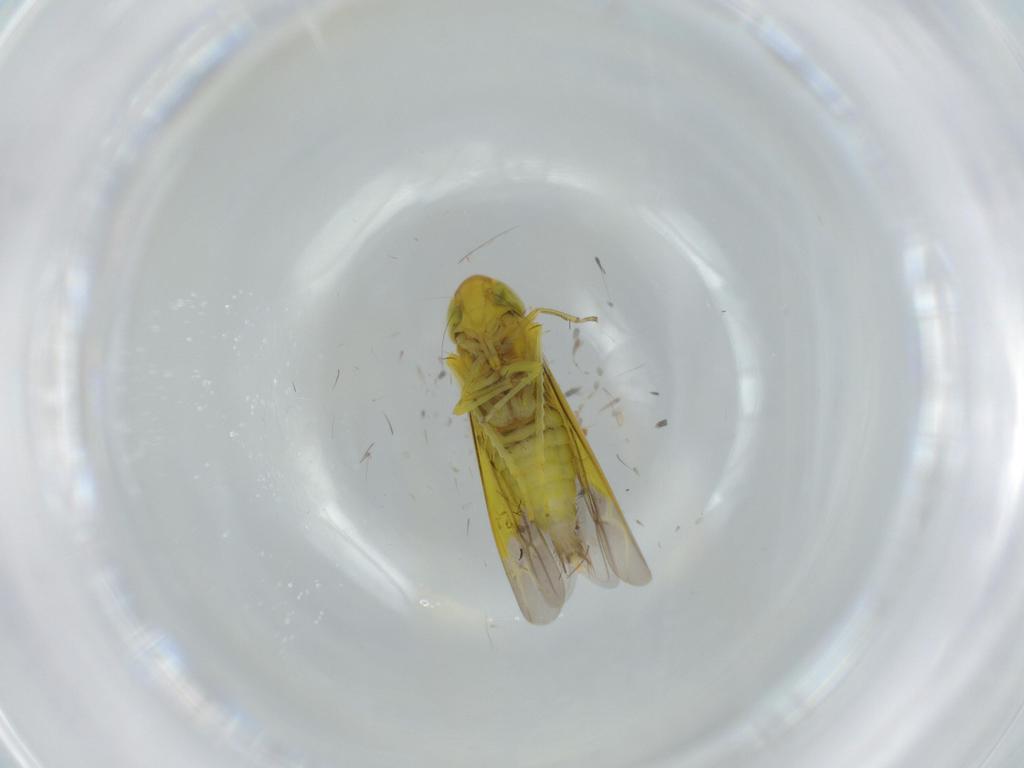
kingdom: Animalia
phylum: Arthropoda
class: Insecta
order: Hemiptera
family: Cicadellidae
